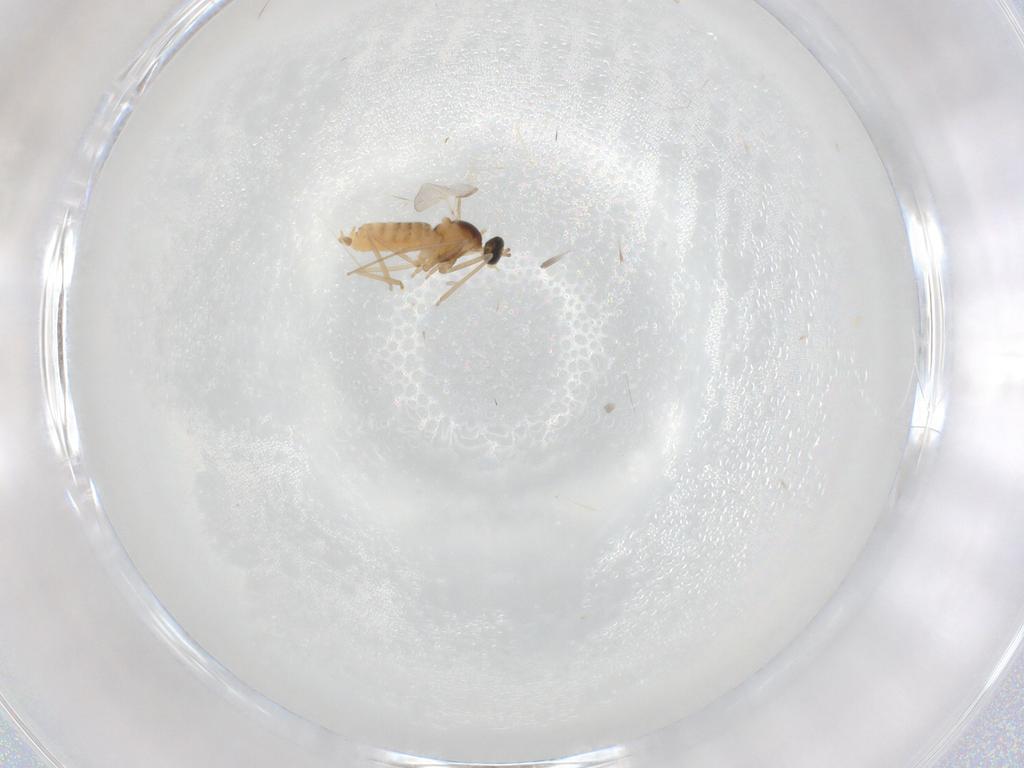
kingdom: Animalia
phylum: Arthropoda
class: Insecta
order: Diptera
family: Cecidomyiidae
